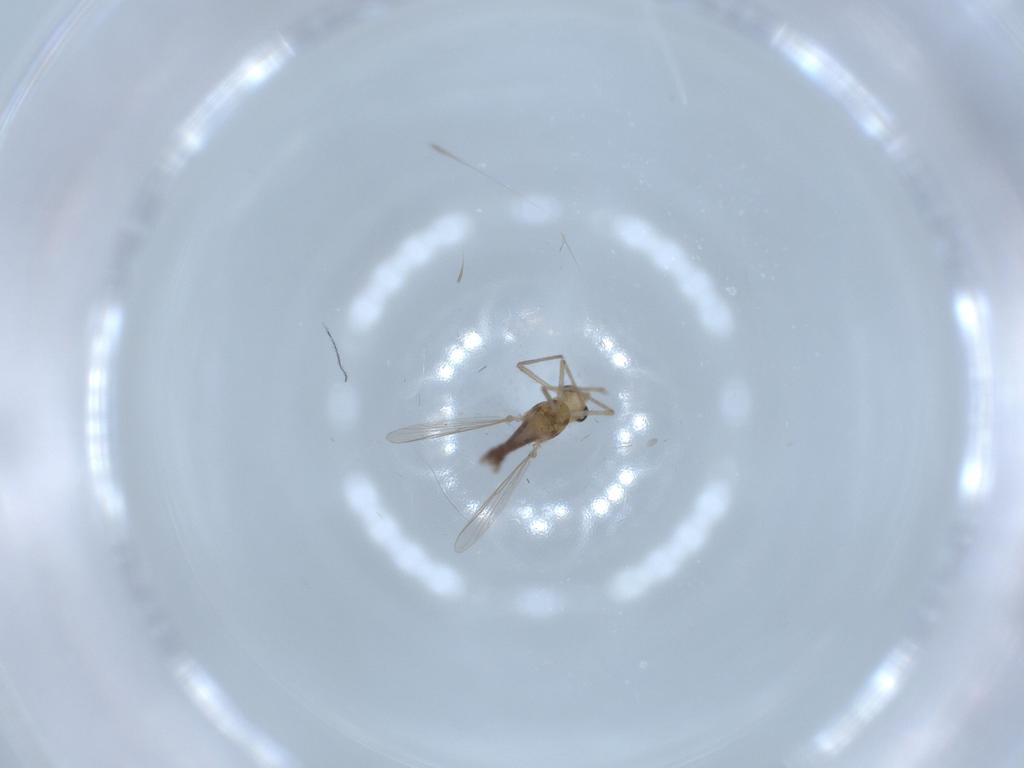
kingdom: Animalia
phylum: Arthropoda
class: Insecta
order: Diptera
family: Chironomidae
